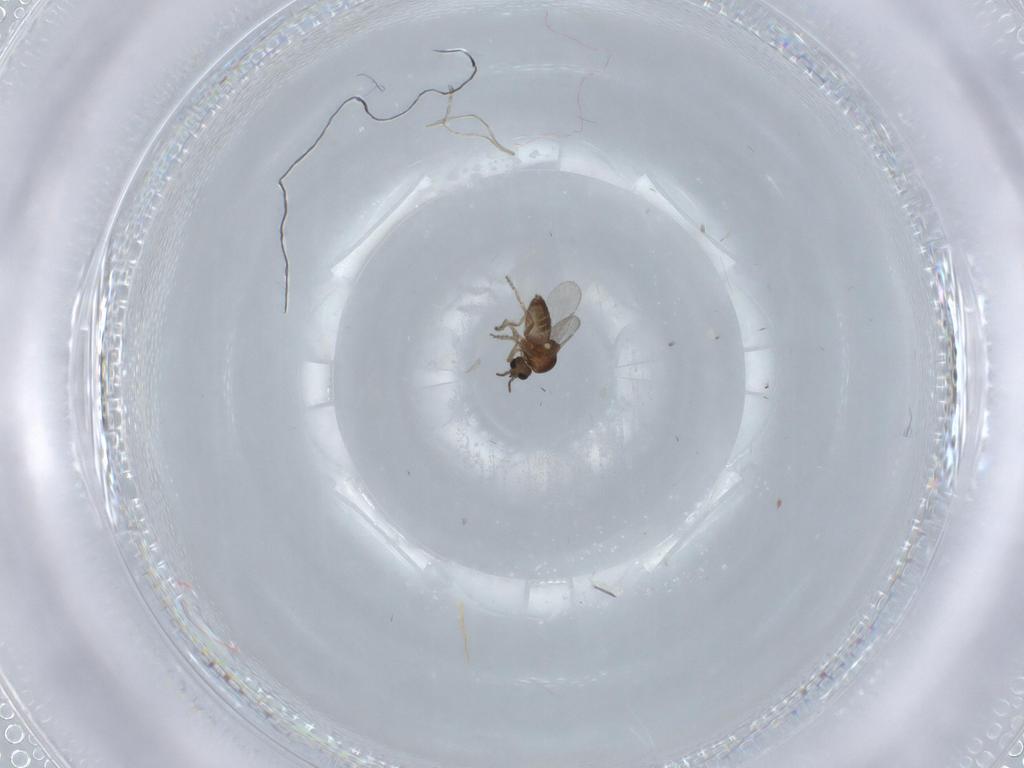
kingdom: Animalia
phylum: Arthropoda
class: Insecta
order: Diptera
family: Ceratopogonidae
